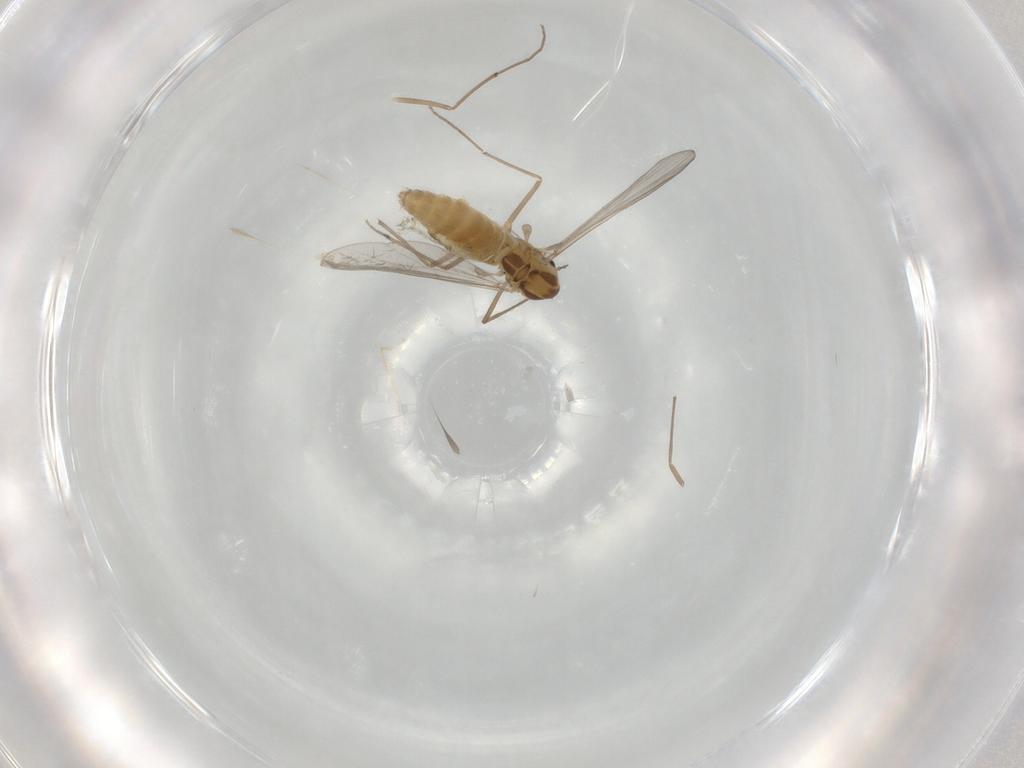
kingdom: Animalia
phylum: Arthropoda
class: Insecta
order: Diptera
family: Chironomidae
